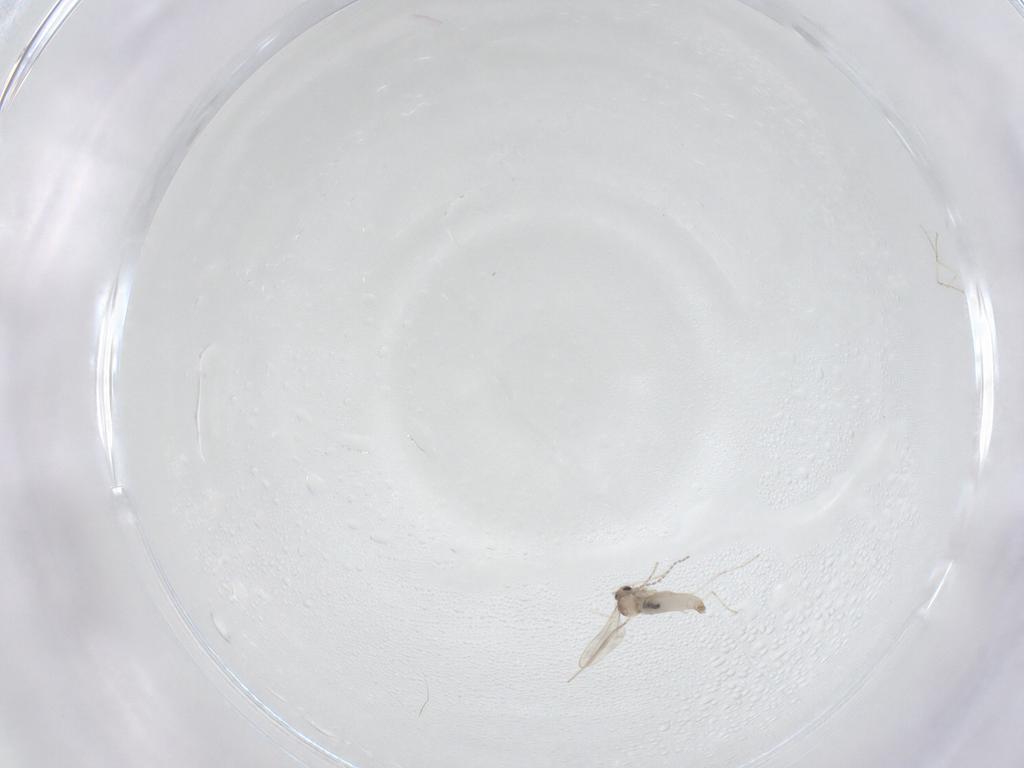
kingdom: Animalia
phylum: Arthropoda
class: Insecta
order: Diptera
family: Cecidomyiidae
